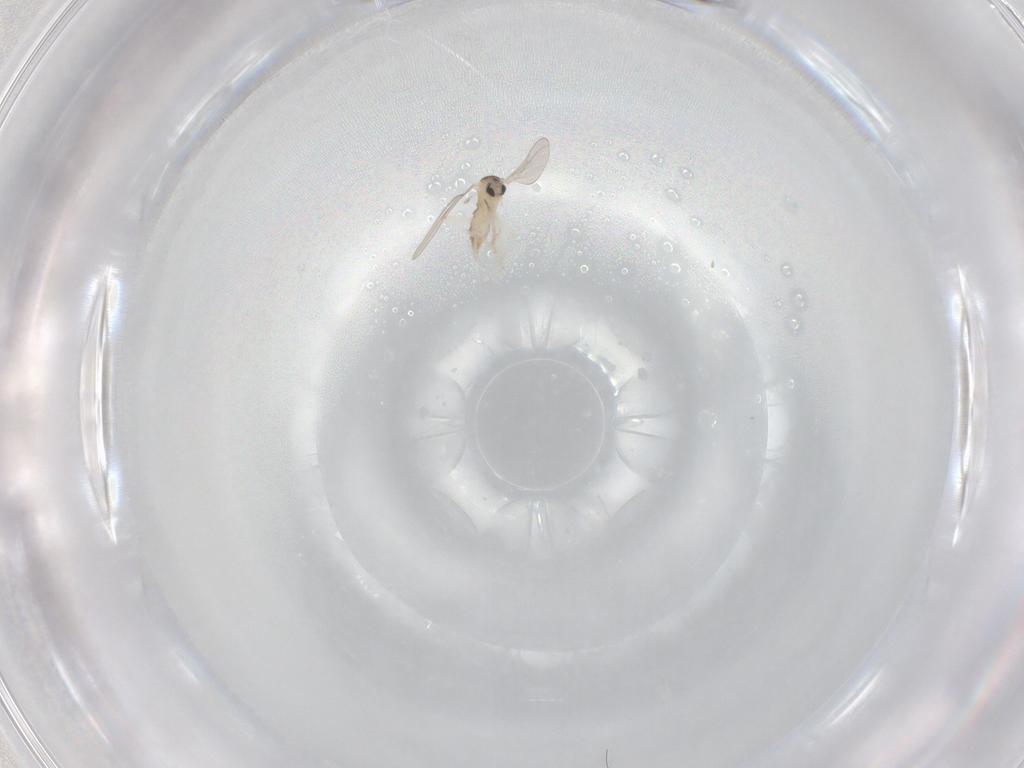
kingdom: Animalia
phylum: Arthropoda
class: Insecta
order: Diptera
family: Cecidomyiidae
